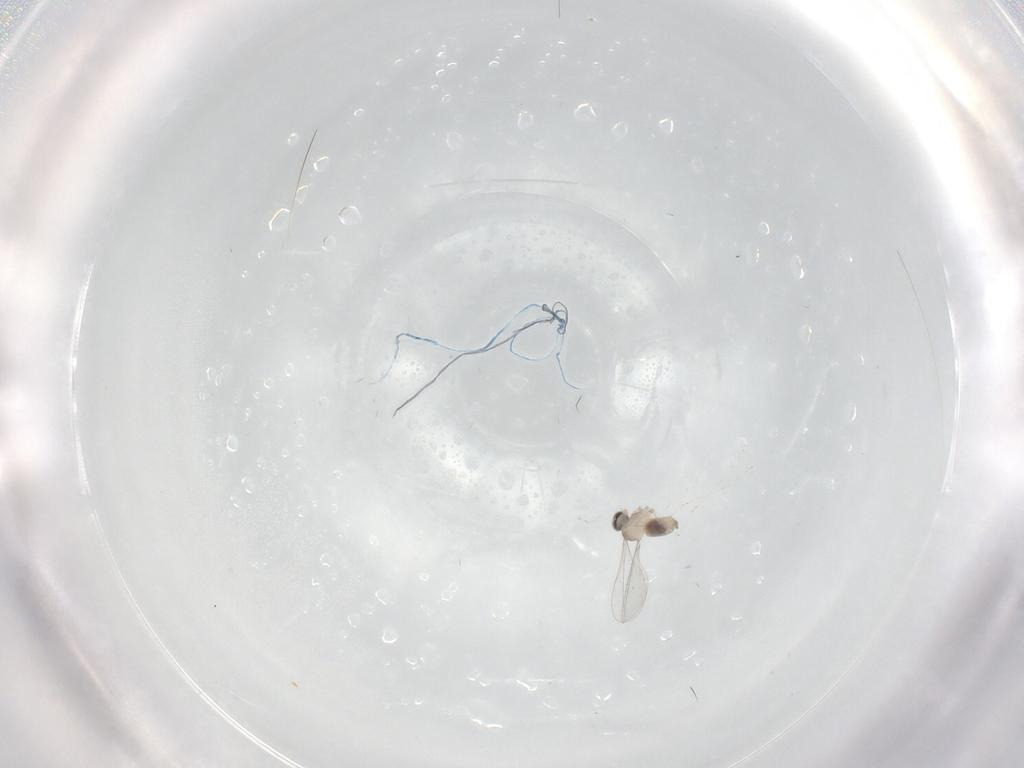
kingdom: Animalia
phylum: Arthropoda
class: Insecta
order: Diptera
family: Cecidomyiidae
